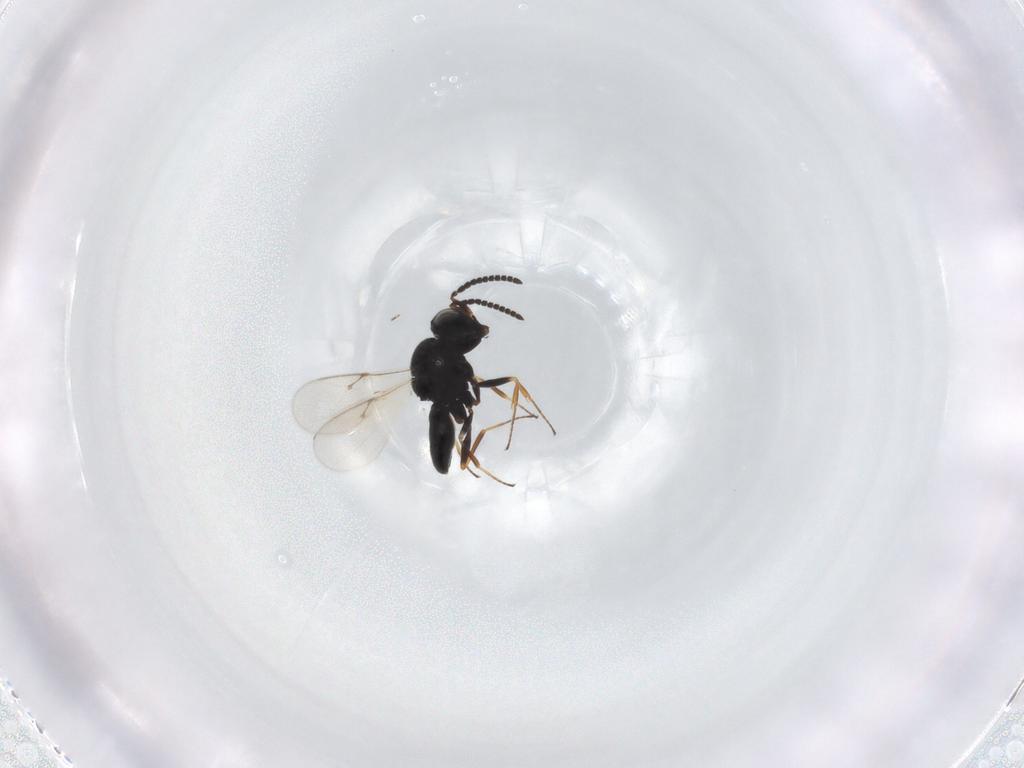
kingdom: Animalia
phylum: Arthropoda
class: Insecta
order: Hymenoptera
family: Scelionidae
